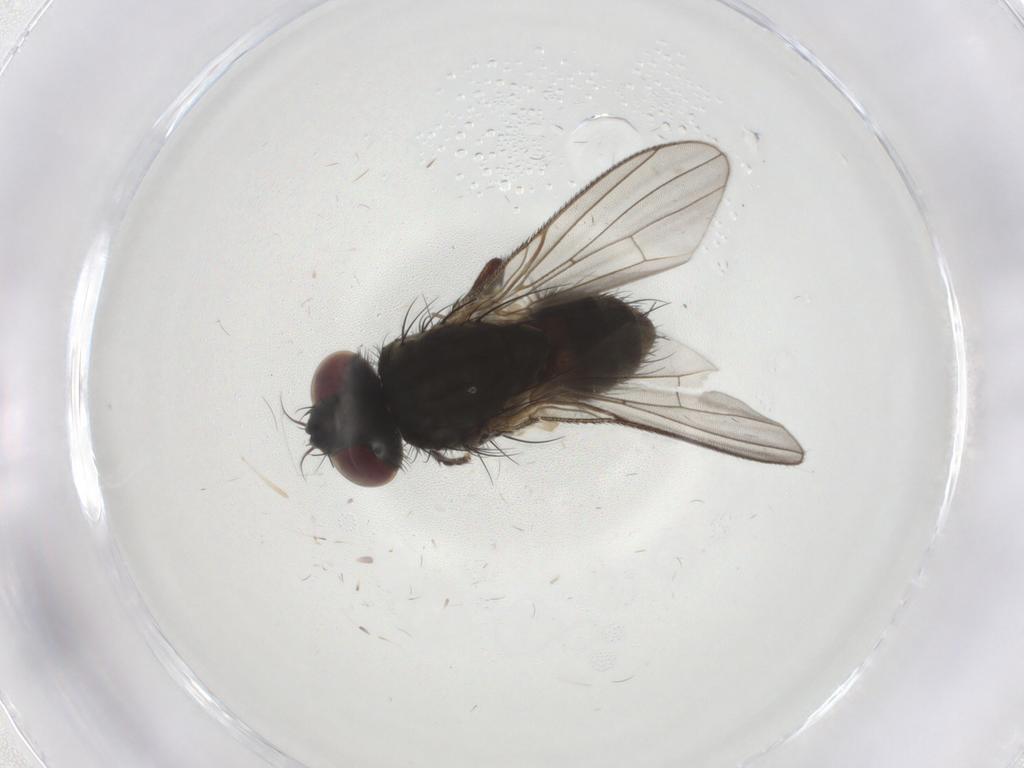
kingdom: Animalia
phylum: Arthropoda
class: Insecta
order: Diptera
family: Muscidae
